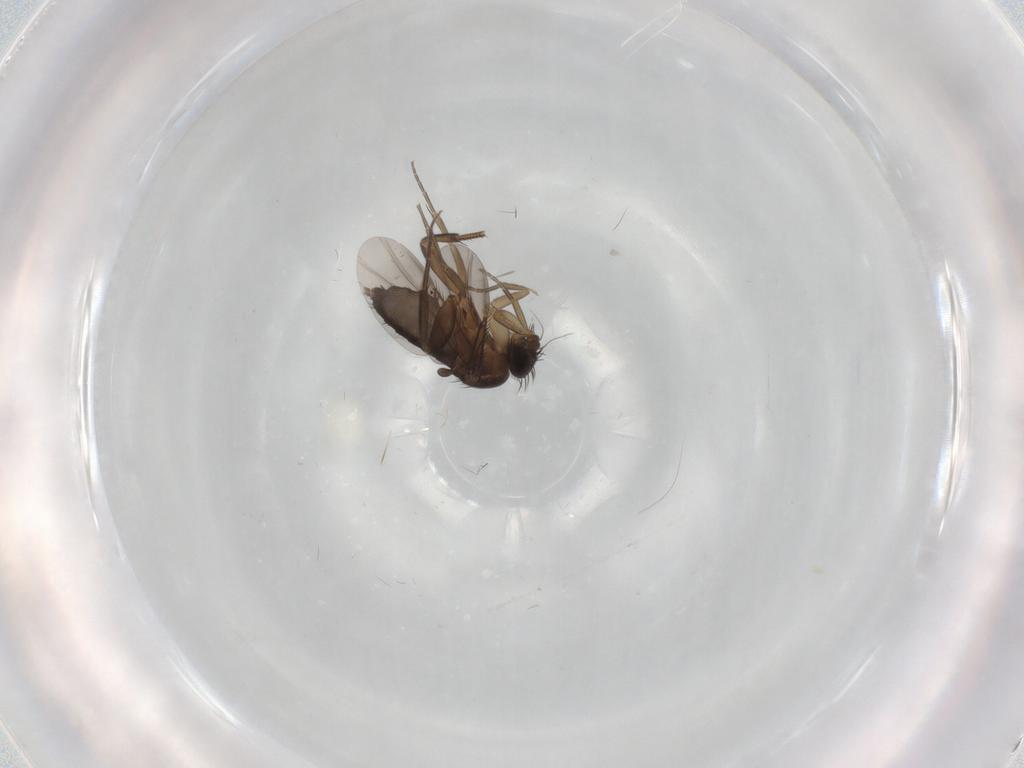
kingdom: Animalia
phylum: Arthropoda
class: Insecta
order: Diptera
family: Phoridae
